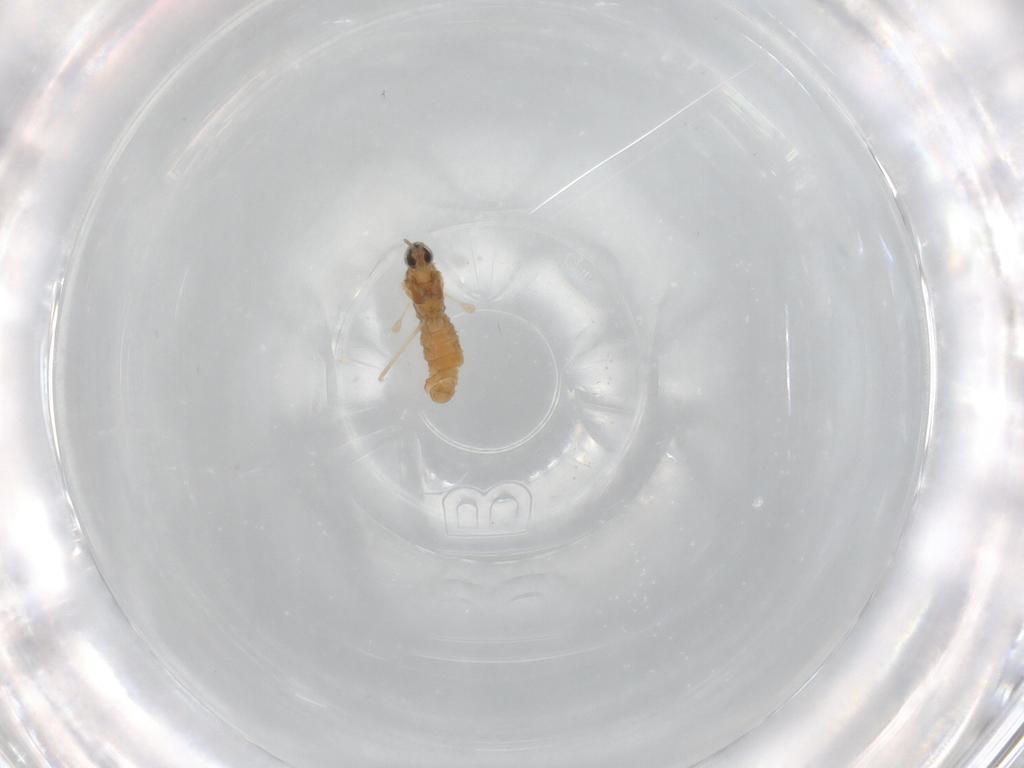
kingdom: Animalia
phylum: Arthropoda
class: Insecta
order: Diptera
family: Cecidomyiidae
